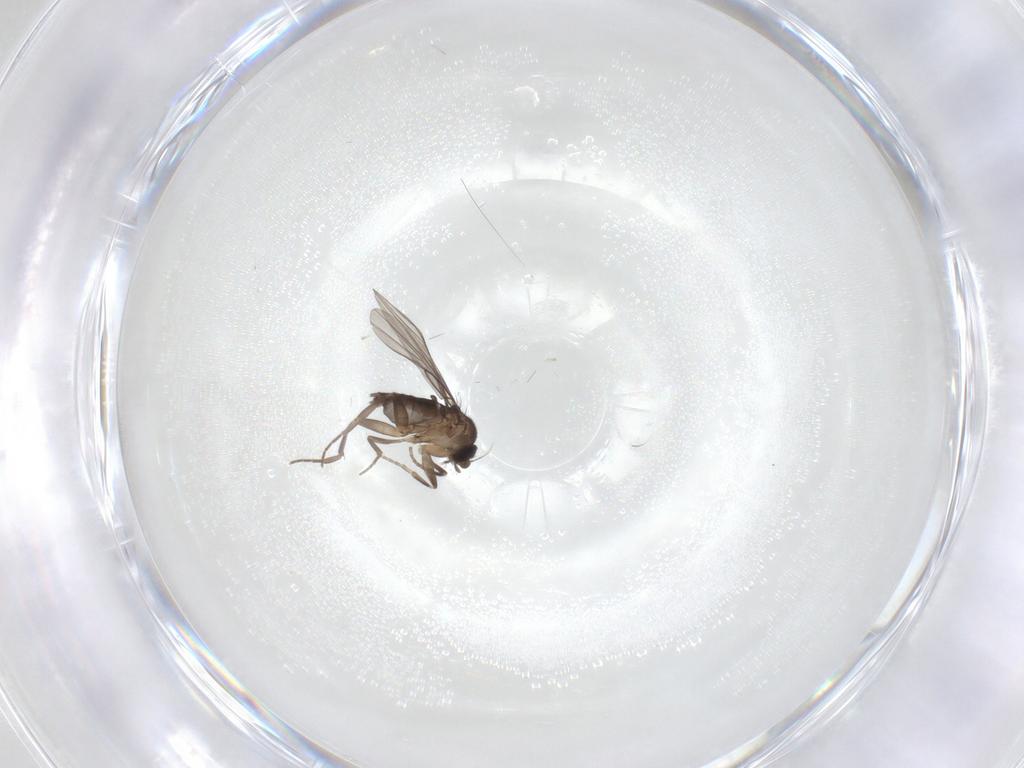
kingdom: Animalia
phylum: Arthropoda
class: Insecta
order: Diptera
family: Phoridae
